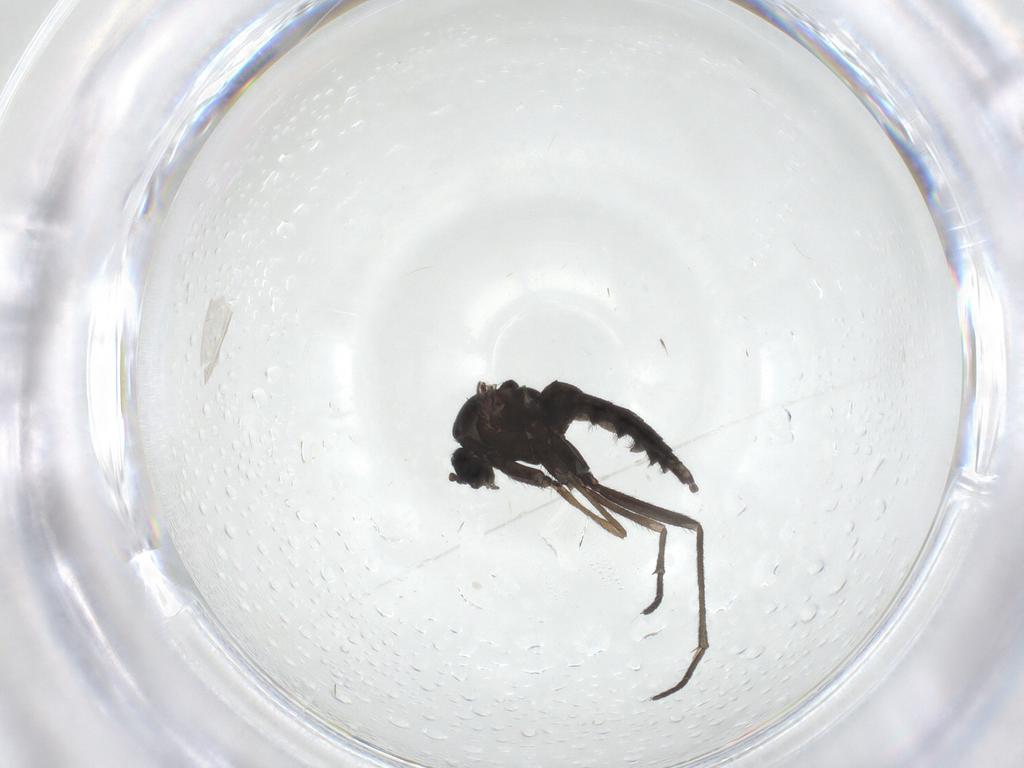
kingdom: Animalia
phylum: Arthropoda
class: Insecta
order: Diptera
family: Sciaridae
